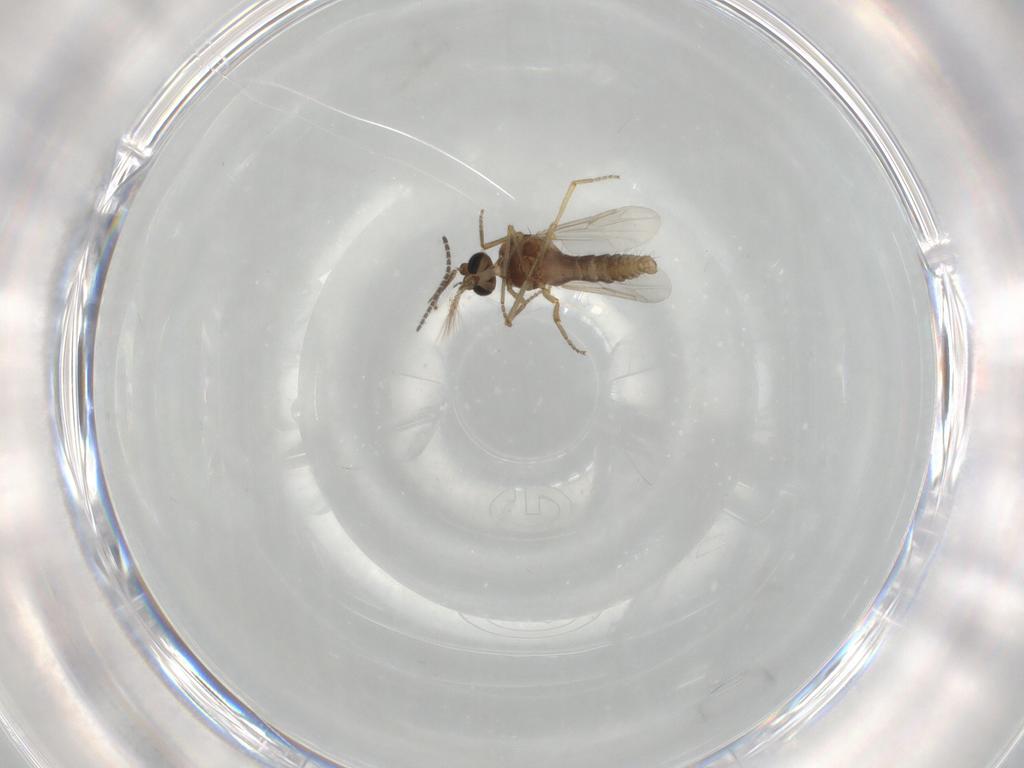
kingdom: Animalia
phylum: Arthropoda
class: Insecta
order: Diptera
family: Ceratopogonidae
